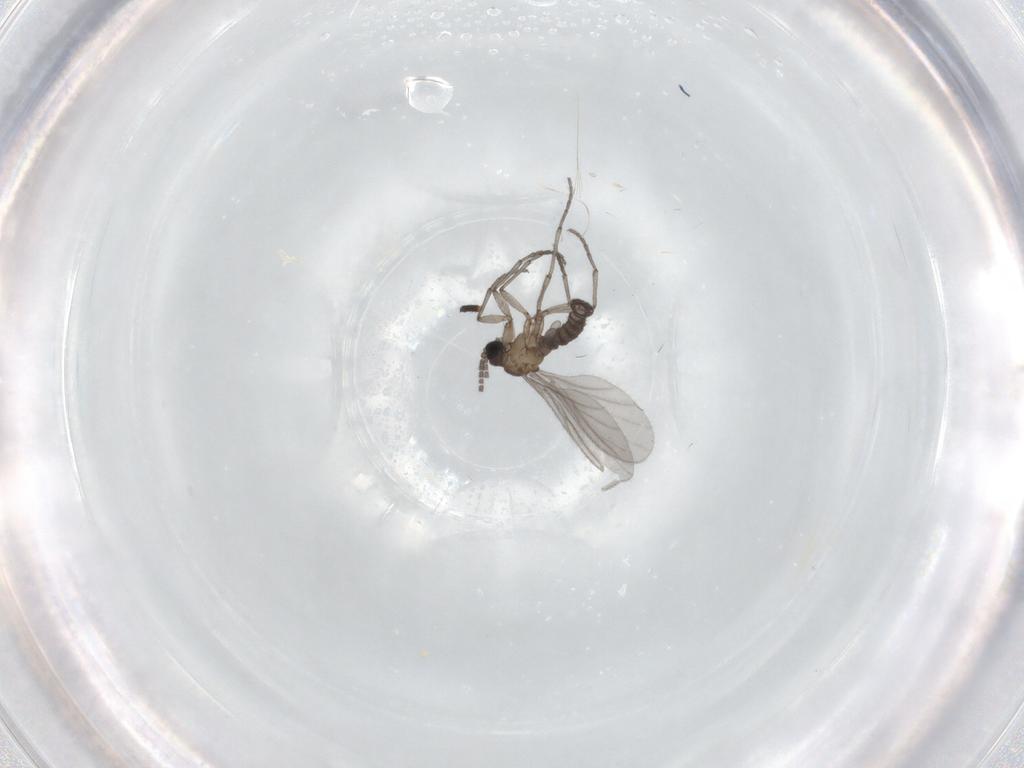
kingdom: Animalia
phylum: Arthropoda
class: Insecta
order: Diptera
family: Sciaridae
